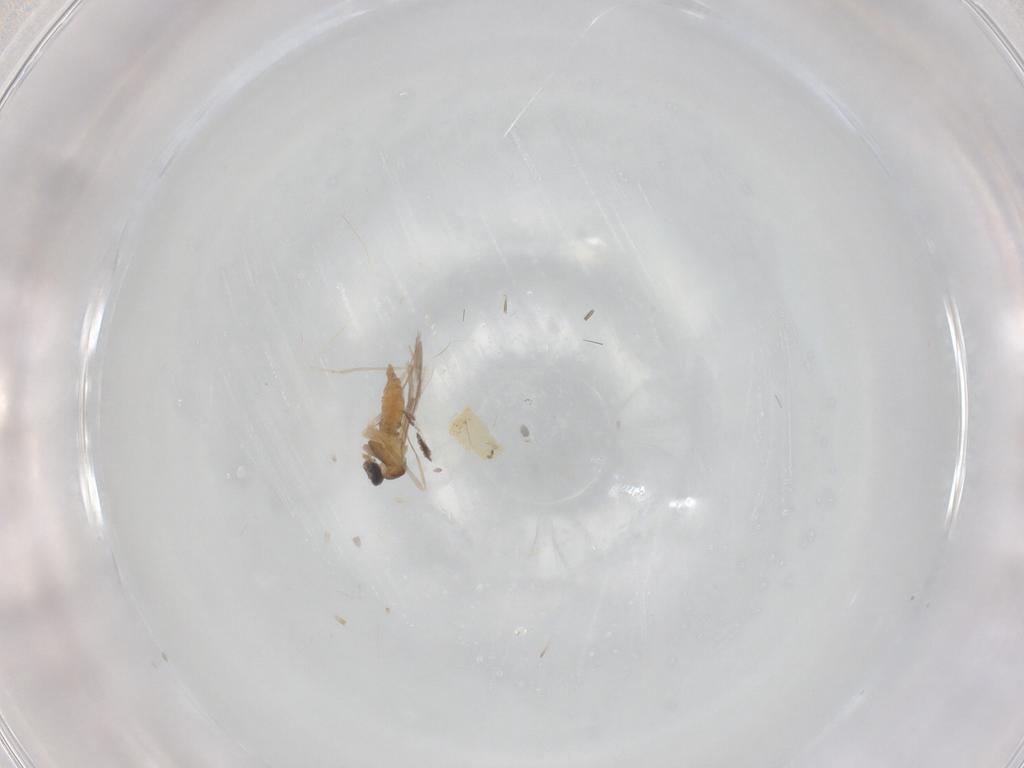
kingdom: Animalia
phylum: Arthropoda
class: Insecta
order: Diptera
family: Cecidomyiidae
